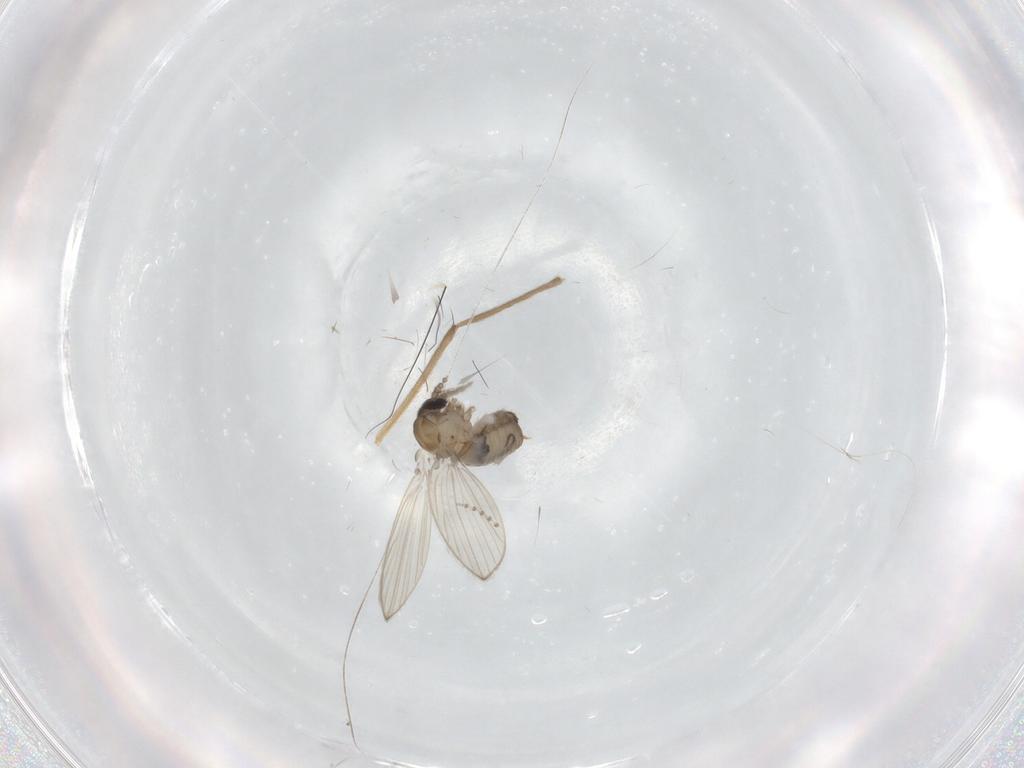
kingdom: Animalia
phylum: Arthropoda
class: Insecta
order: Diptera
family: Psychodidae
